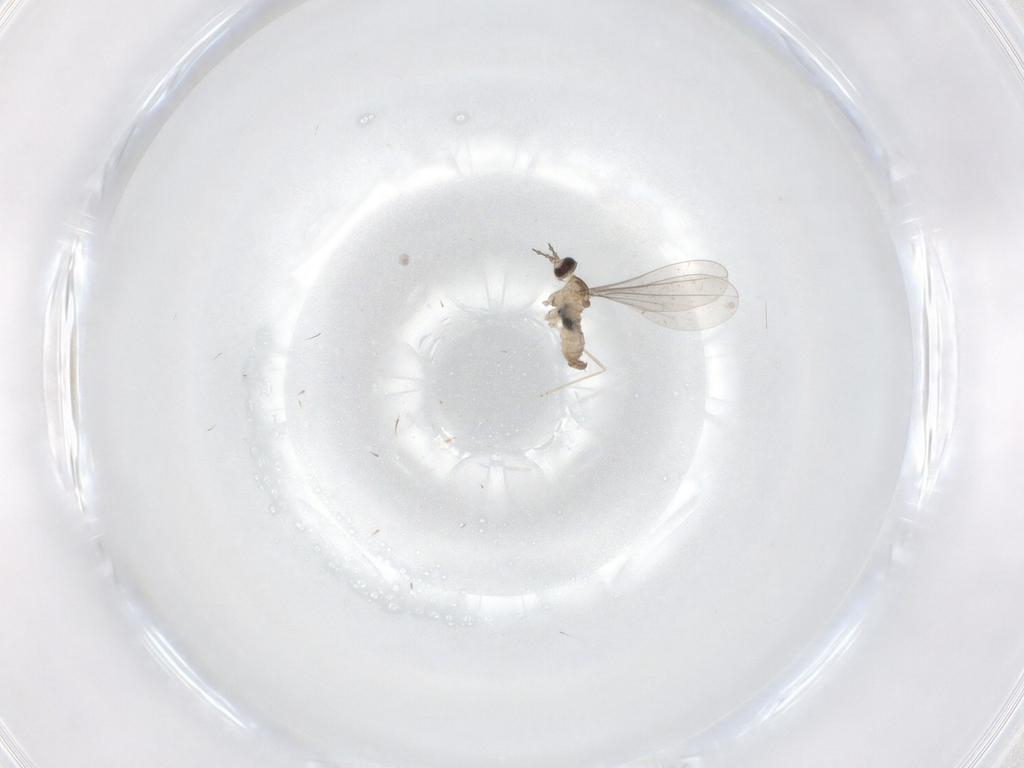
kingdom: Animalia
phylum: Arthropoda
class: Insecta
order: Diptera
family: Cecidomyiidae
